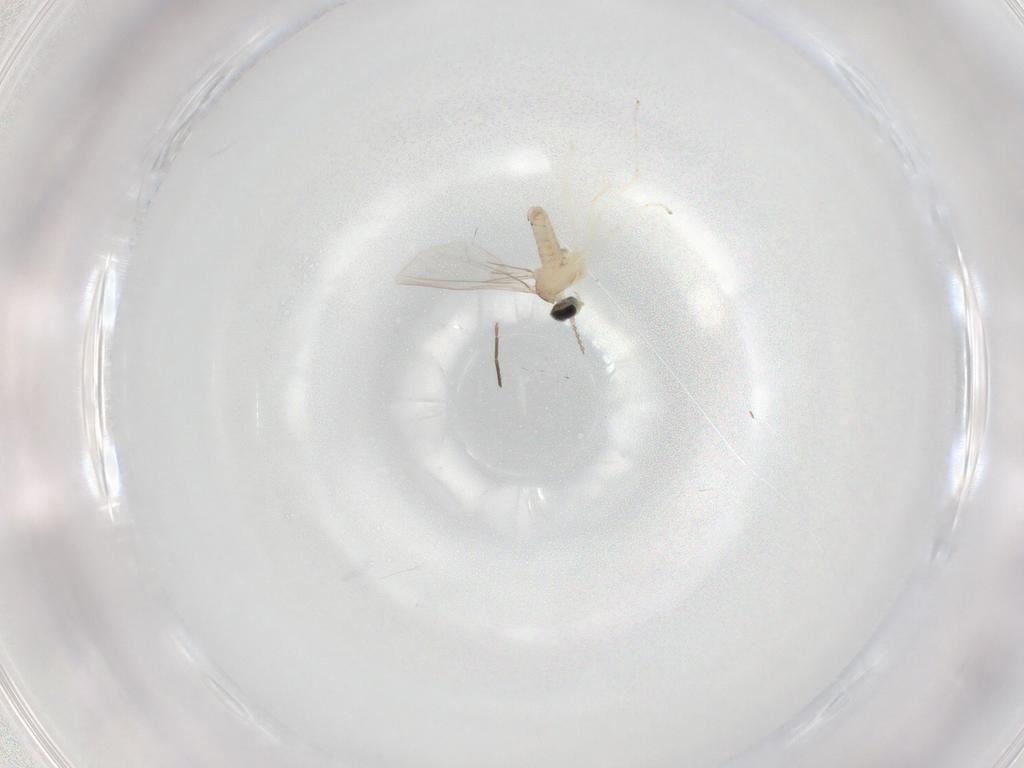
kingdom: Animalia
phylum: Arthropoda
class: Insecta
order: Diptera
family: Chironomidae
